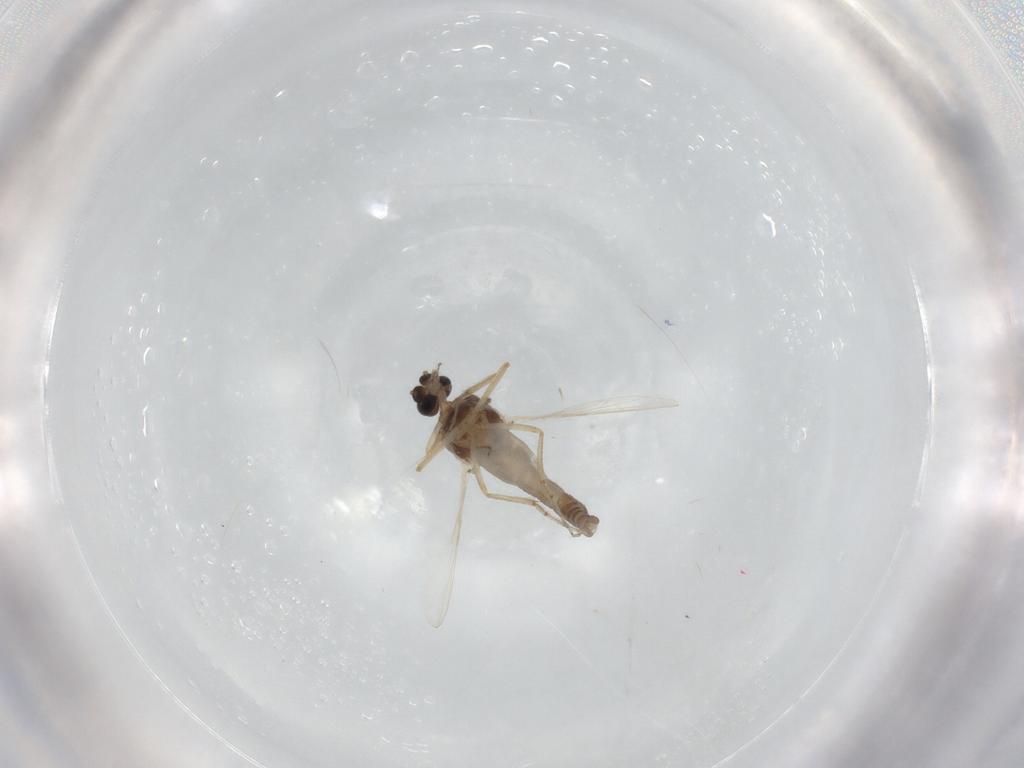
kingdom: Animalia
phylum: Arthropoda
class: Insecta
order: Diptera
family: Ceratopogonidae
